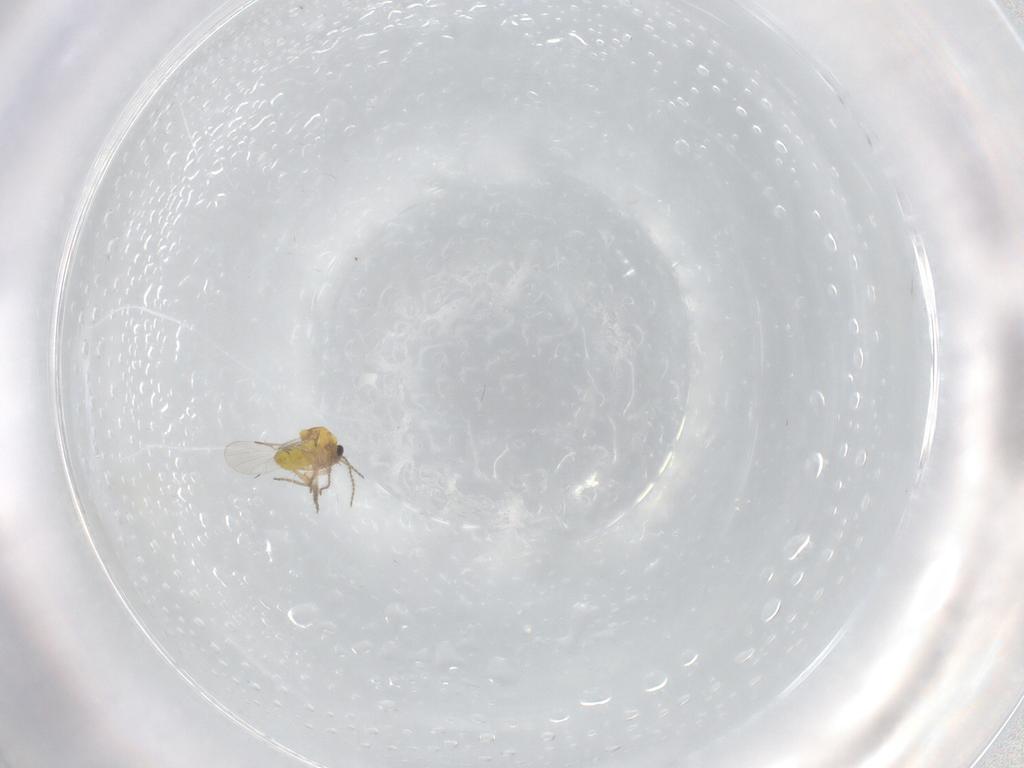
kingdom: Animalia
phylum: Arthropoda
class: Insecta
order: Diptera
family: Ceratopogonidae
